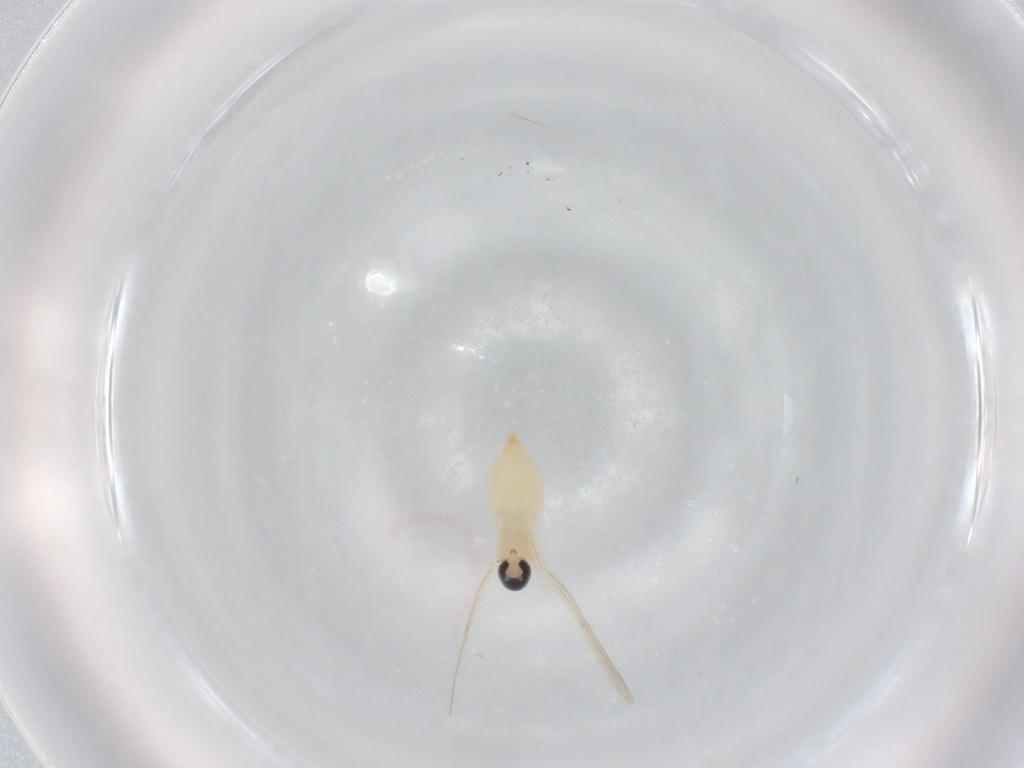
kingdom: Animalia
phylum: Arthropoda
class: Insecta
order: Diptera
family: Cecidomyiidae
